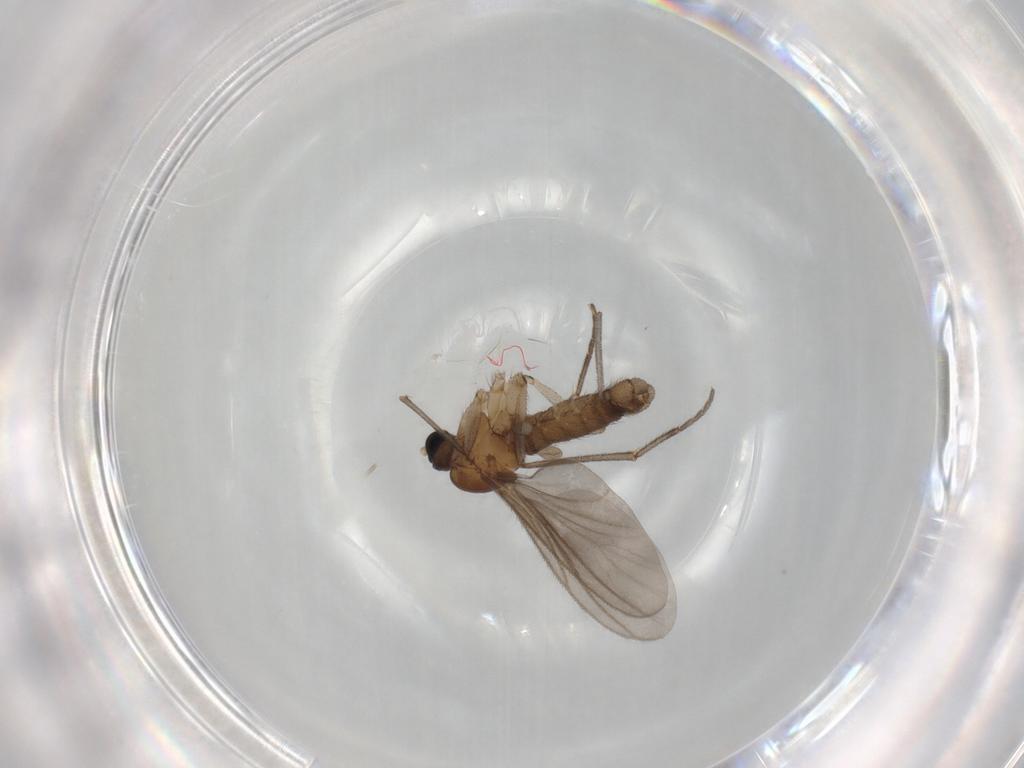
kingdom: Animalia
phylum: Arthropoda
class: Insecta
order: Diptera
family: Sciaridae
